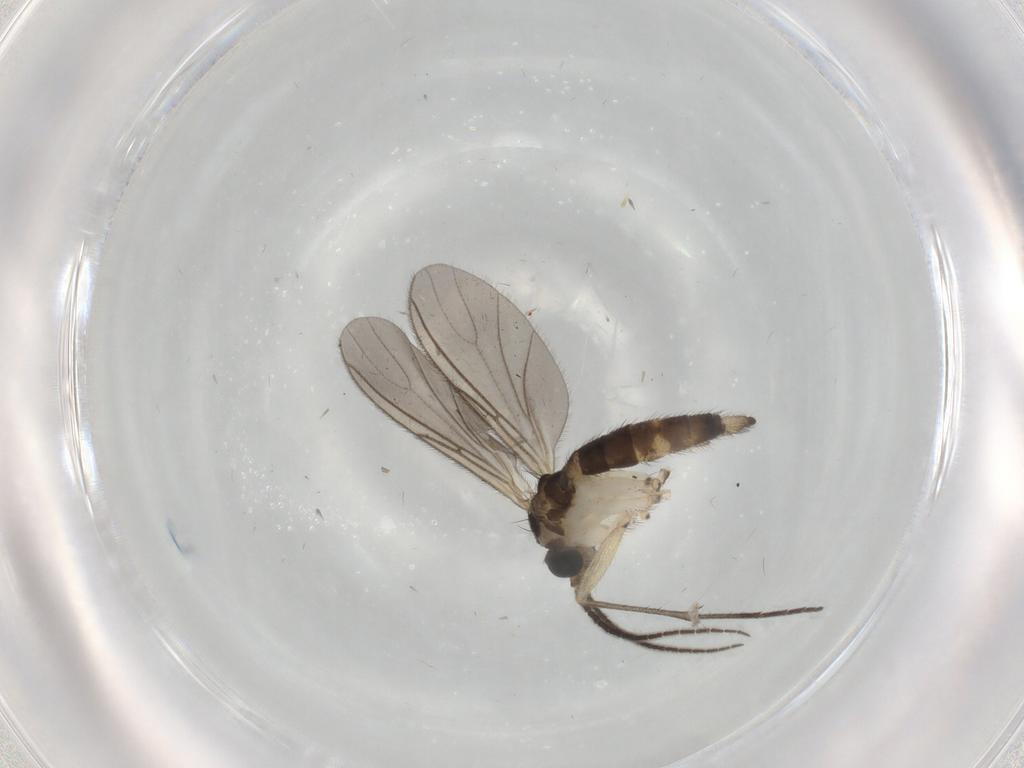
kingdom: Animalia
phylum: Arthropoda
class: Insecta
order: Diptera
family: Sciaridae
